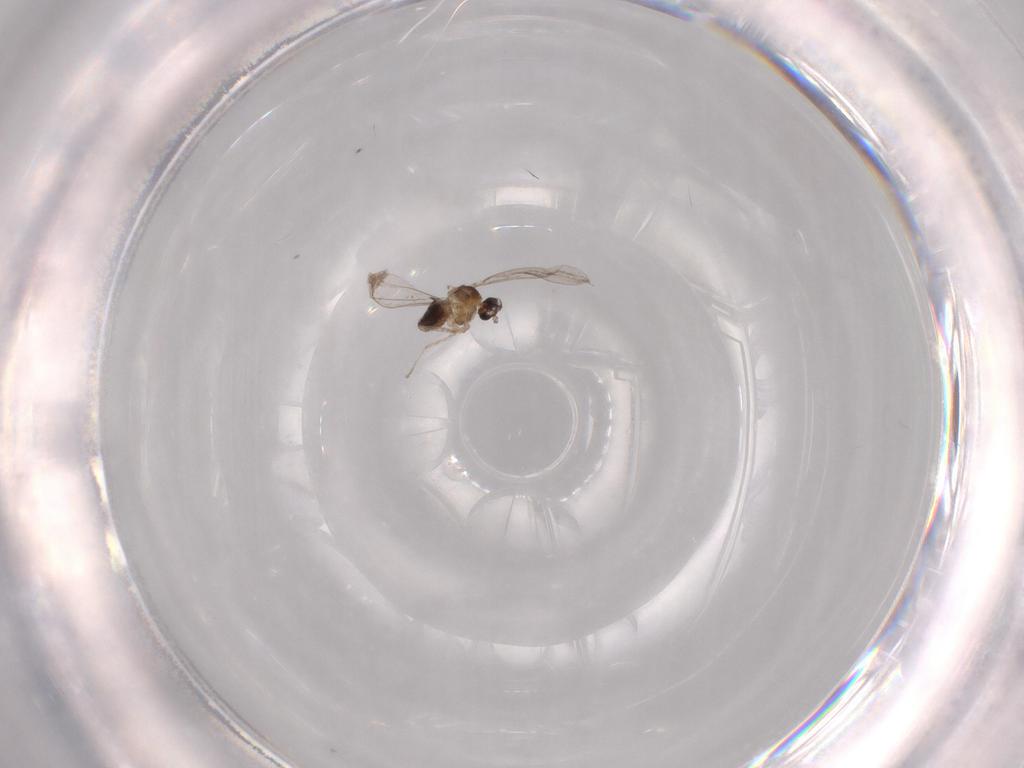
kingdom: Animalia
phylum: Arthropoda
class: Insecta
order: Diptera
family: Cecidomyiidae
